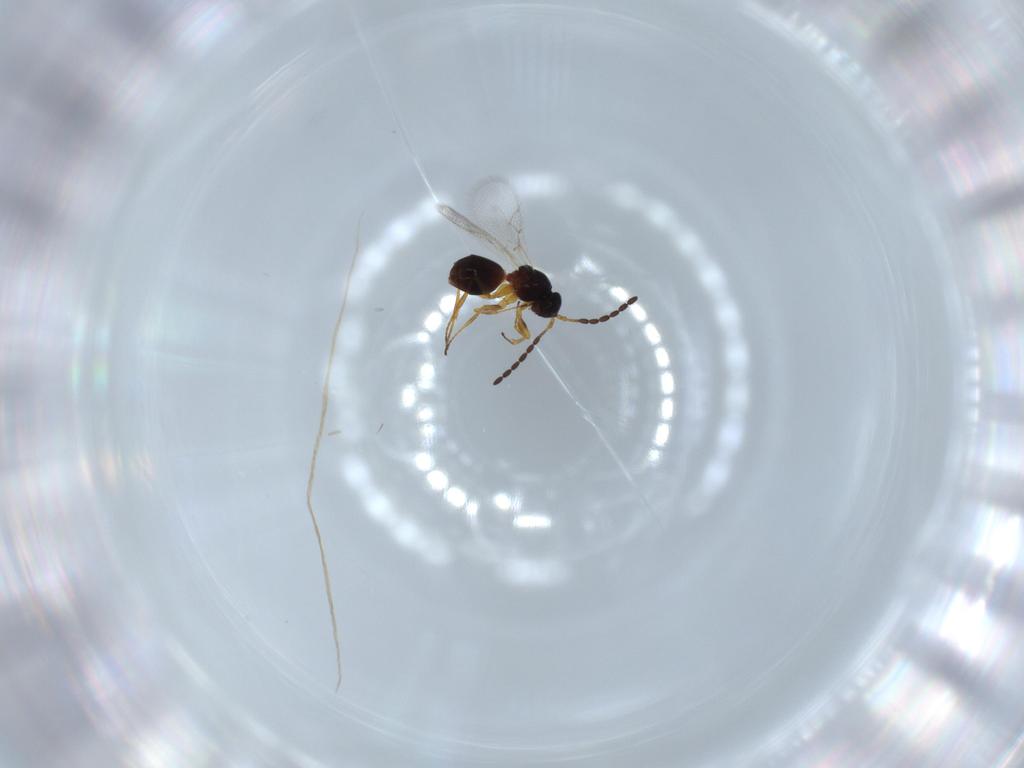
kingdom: Animalia
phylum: Arthropoda
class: Insecta
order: Hymenoptera
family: Figitidae
